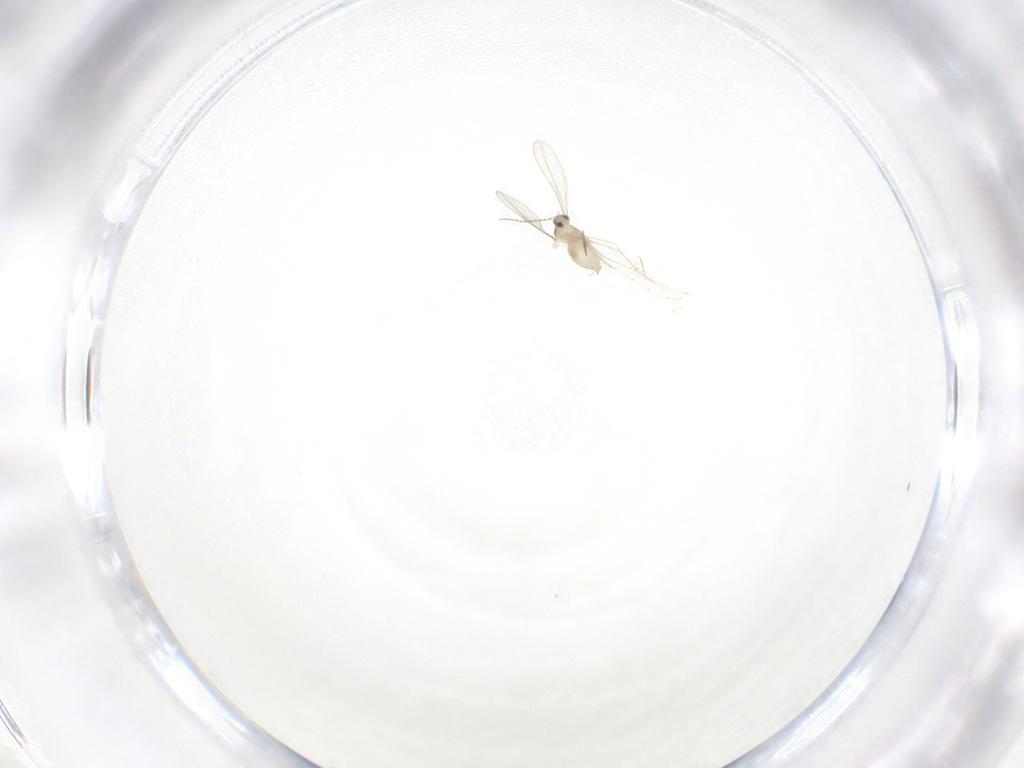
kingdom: Animalia
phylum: Arthropoda
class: Insecta
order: Diptera
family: Cecidomyiidae
